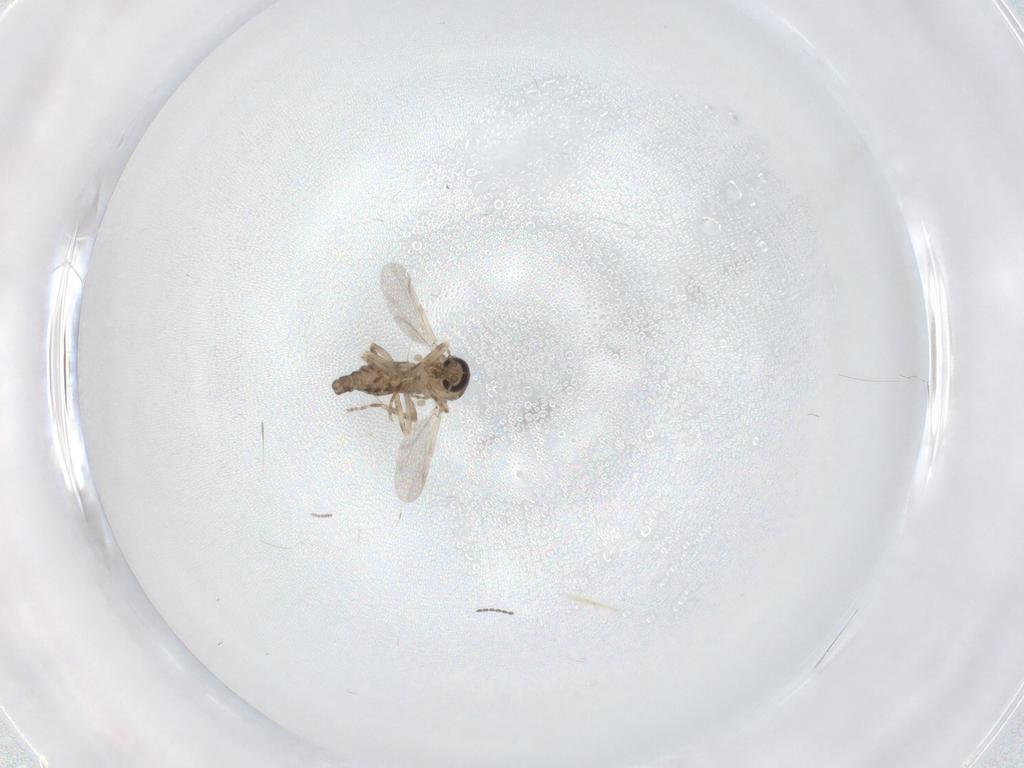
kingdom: Animalia
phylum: Arthropoda
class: Insecta
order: Diptera
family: Ceratopogonidae
